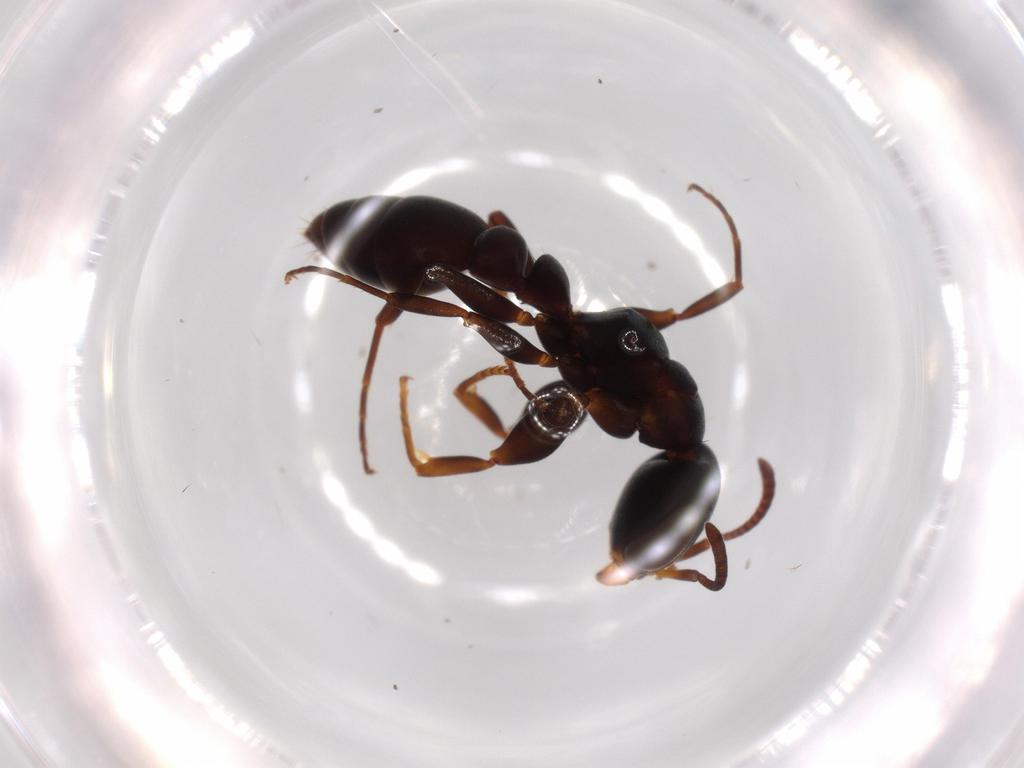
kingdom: Animalia
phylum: Arthropoda
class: Insecta
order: Hymenoptera
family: Formicidae
